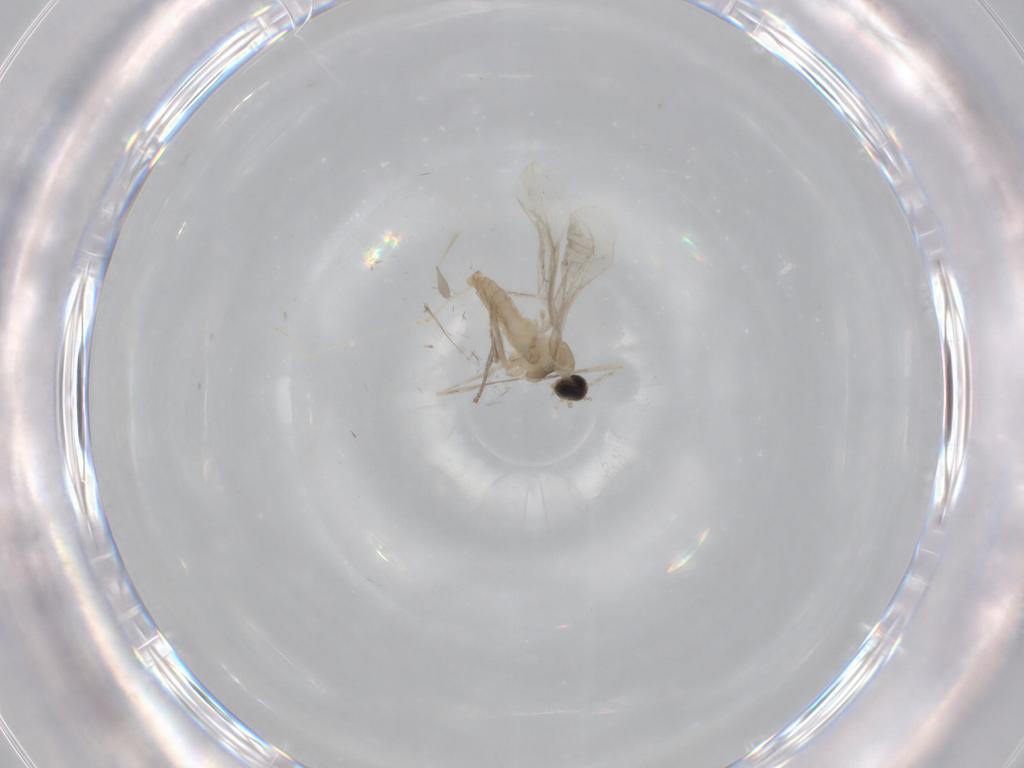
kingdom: Animalia
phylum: Arthropoda
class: Insecta
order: Diptera
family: Cecidomyiidae
